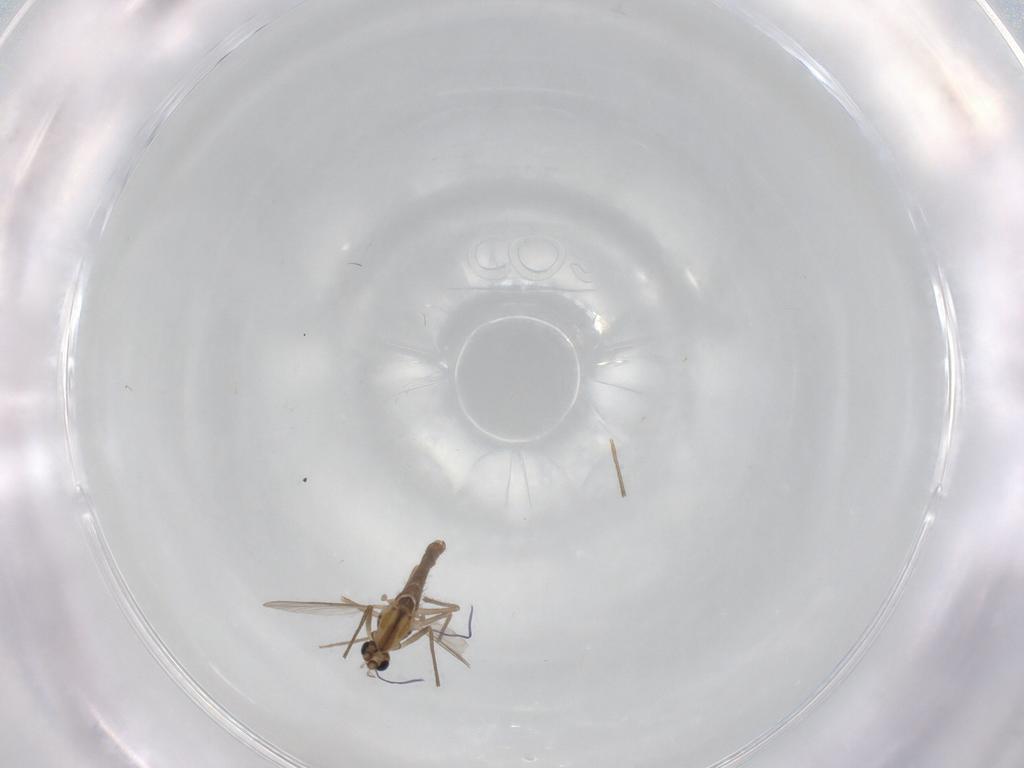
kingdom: Animalia
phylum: Arthropoda
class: Insecta
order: Diptera
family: Chironomidae
